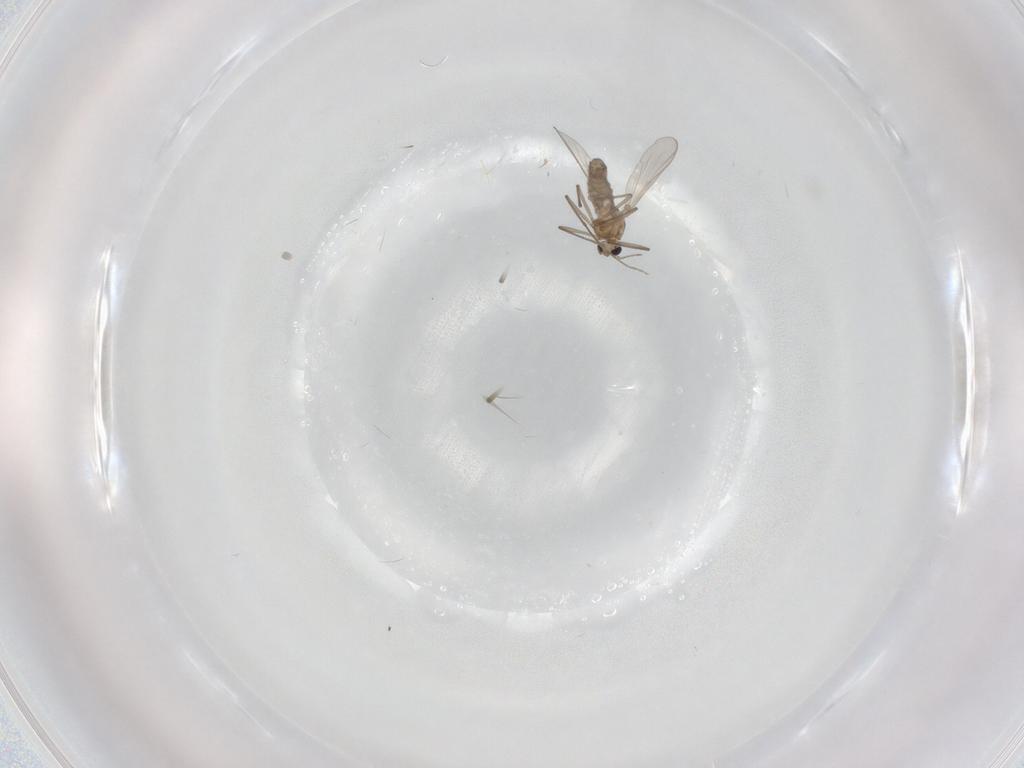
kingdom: Animalia
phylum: Arthropoda
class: Insecta
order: Diptera
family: Chironomidae
